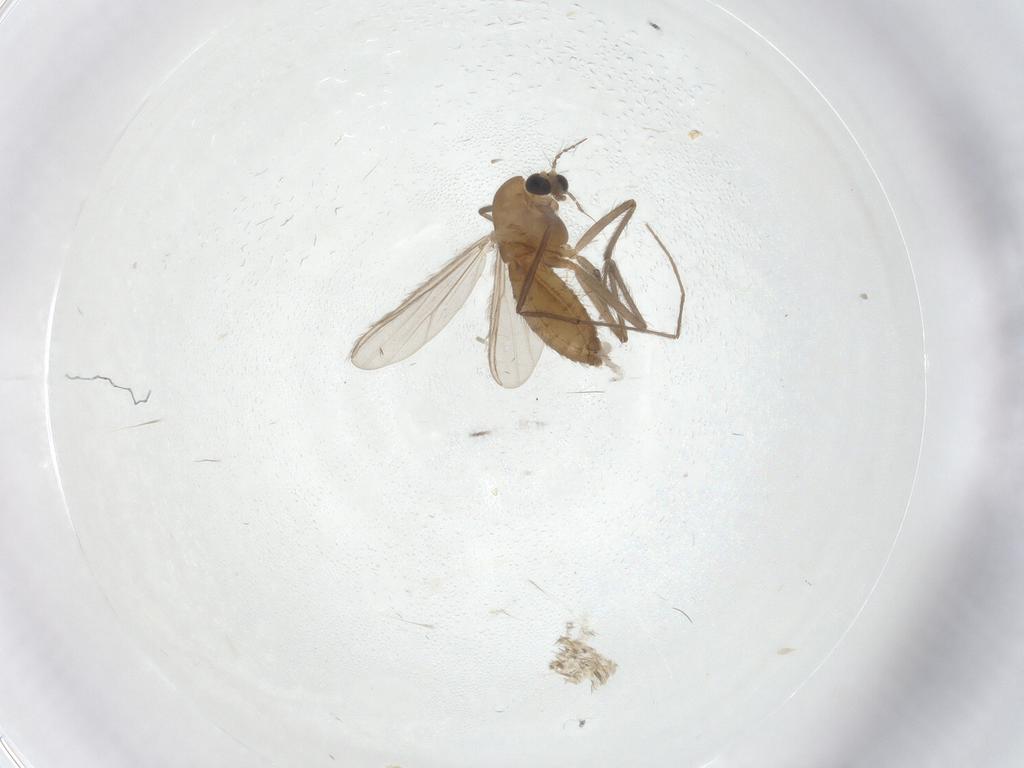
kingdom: Animalia
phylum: Arthropoda
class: Insecta
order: Diptera
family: Chironomidae
